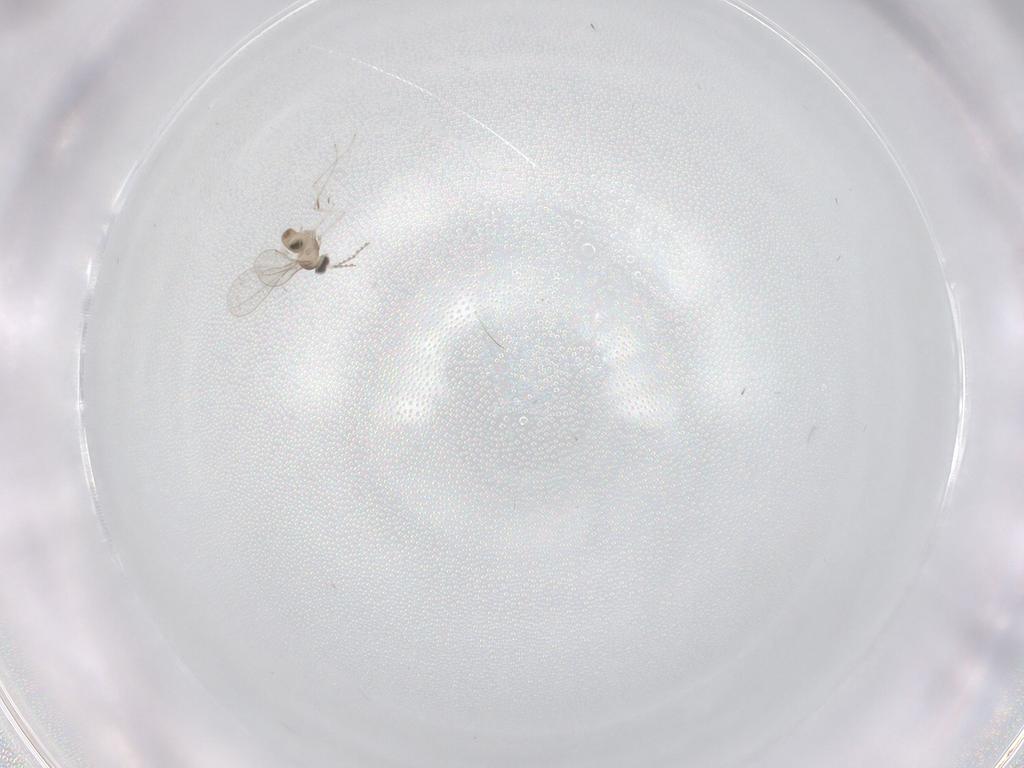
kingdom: Animalia
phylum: Arthropoda
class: Insecta
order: Diptera
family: Cecidomyiidae
